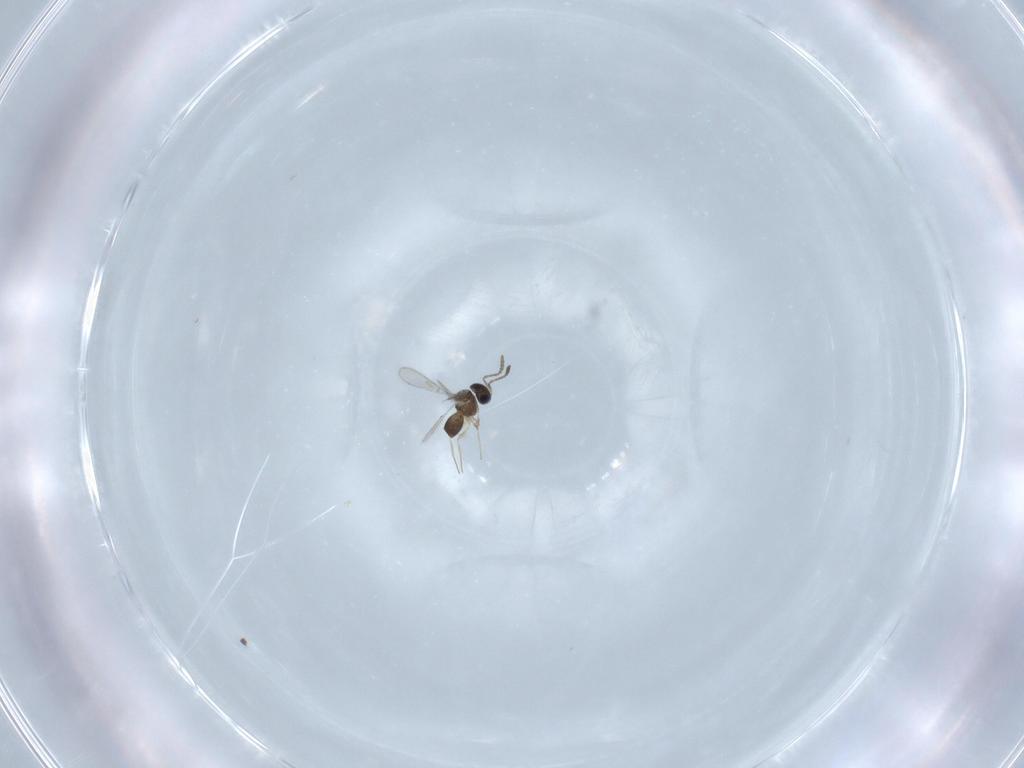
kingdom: Animalia
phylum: Arthropoda
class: Insecta
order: Hymenoptera
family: Scelionidae
